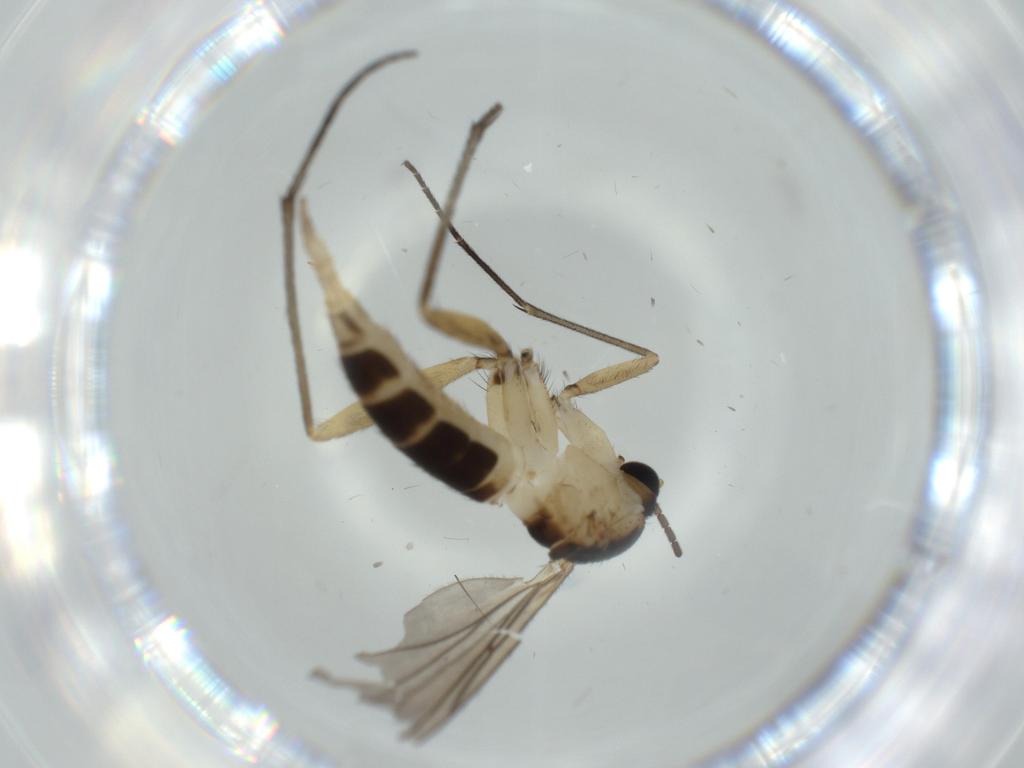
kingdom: Animalia
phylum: Arthropoda
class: Insecta
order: Diptera
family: Sciaridae
